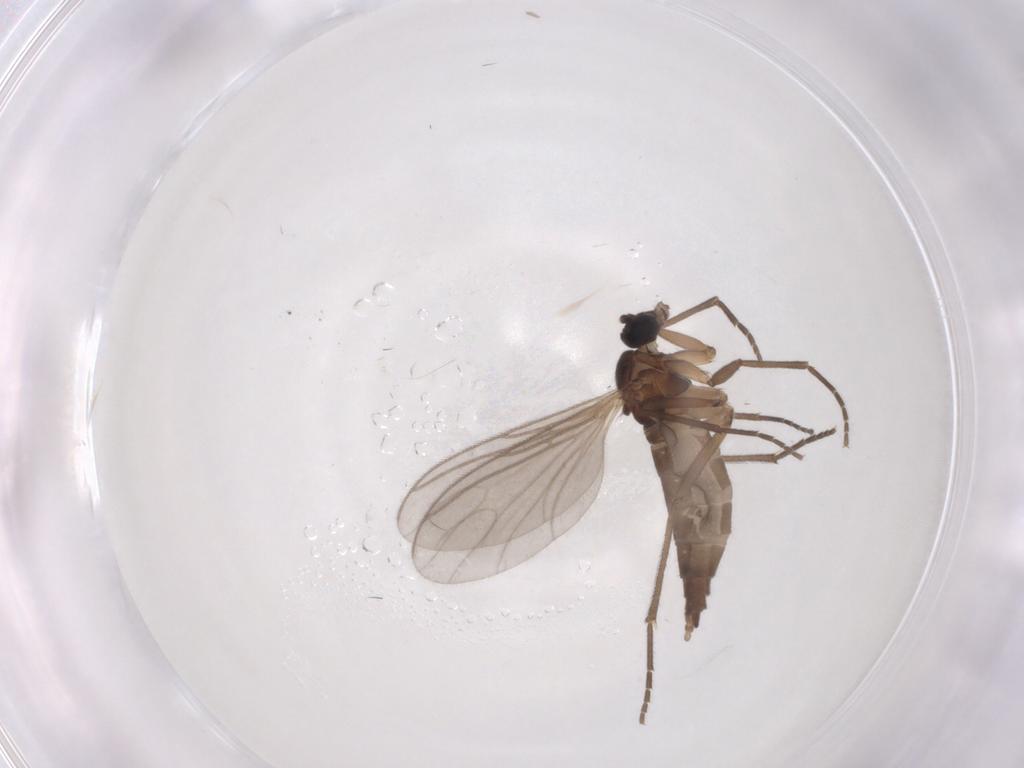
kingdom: Animalia
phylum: Arthropoda
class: Insecta
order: Diptera
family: Sciaridae
